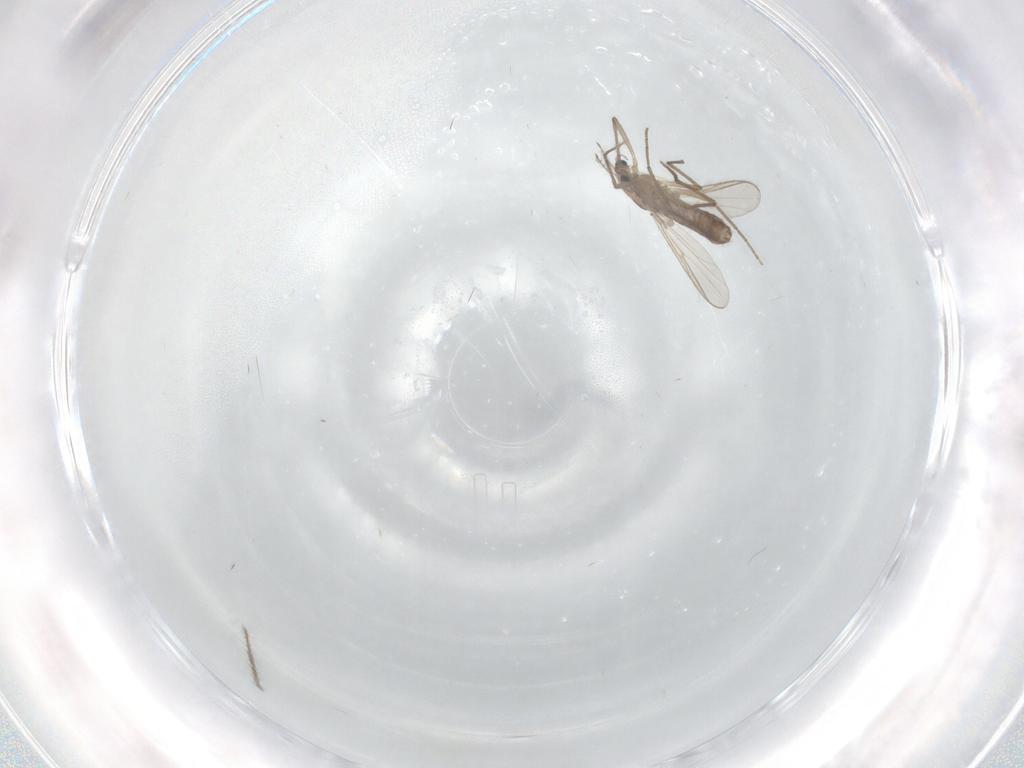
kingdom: Animalia
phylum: Arthropoda
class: Insecta
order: Diptera
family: Chironomidae
